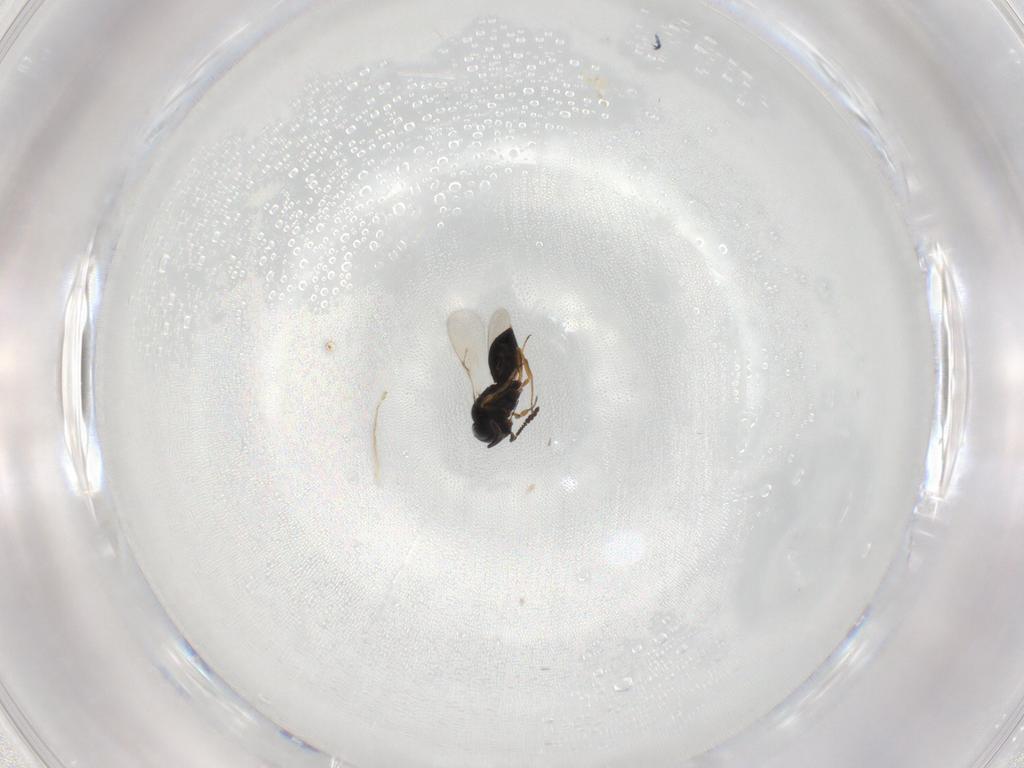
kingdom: Animalia
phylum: Arthropoda
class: Insecta
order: Hymenoptera
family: Scelionidae
